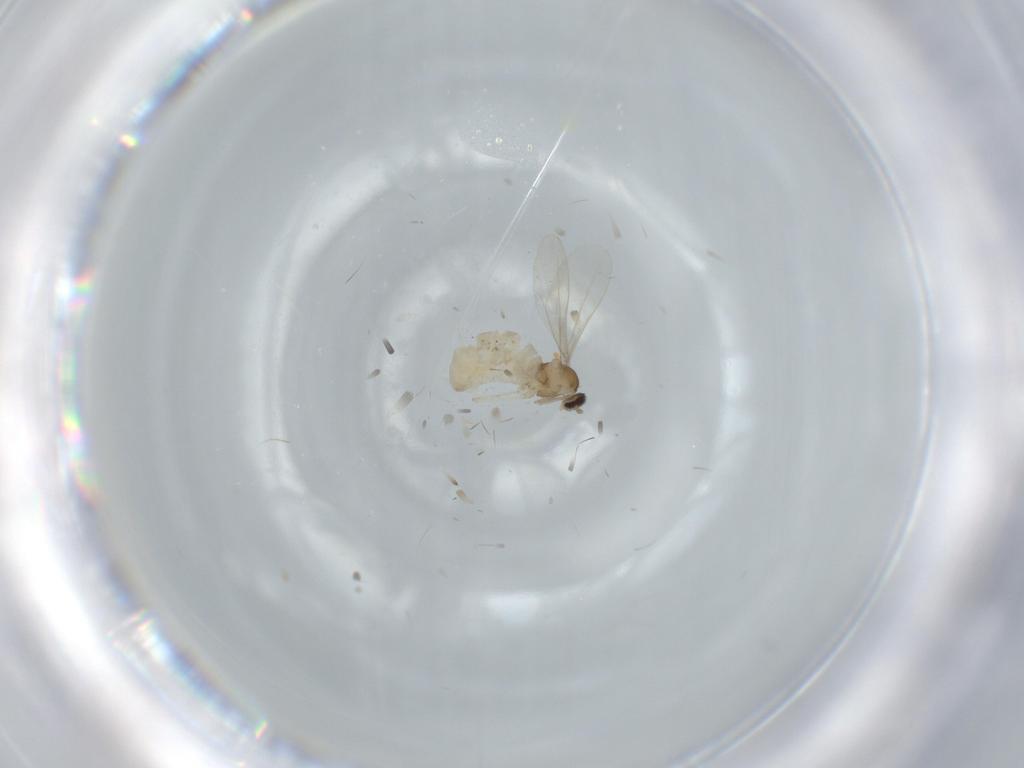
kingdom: Animalia
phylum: Arthropoda
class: Insecta
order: Diptera
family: Cecidomyiidae
